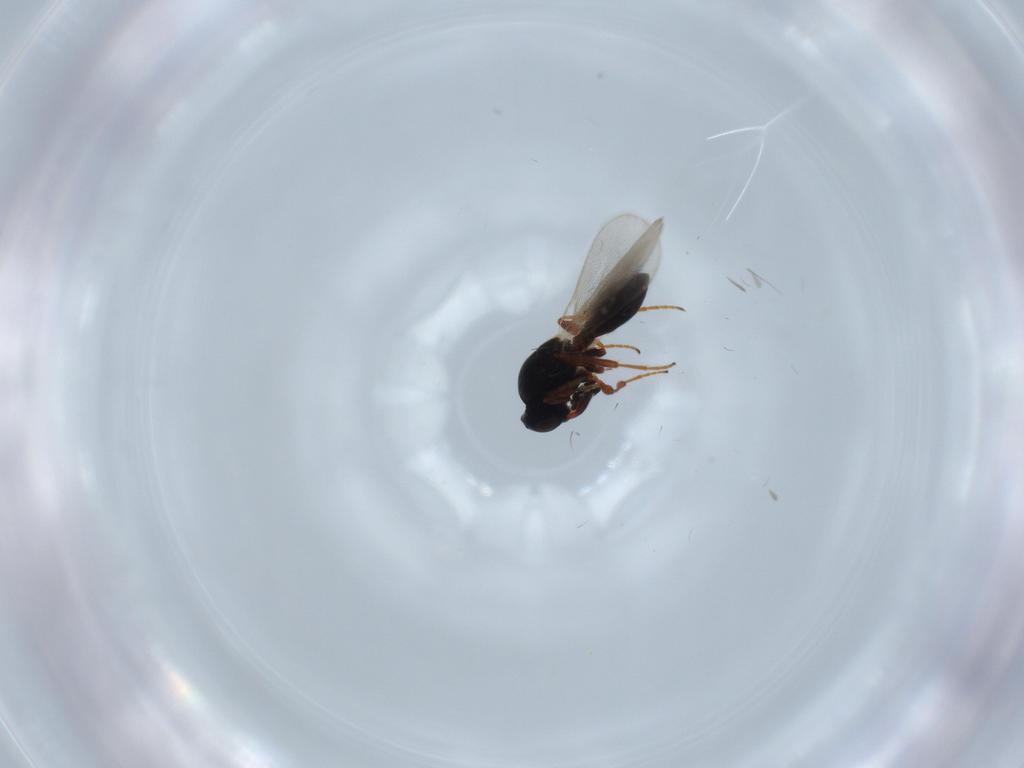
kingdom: Animalia
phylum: Arthropoda
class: Insecta
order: Hymenoptera
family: Ichneumonidae
